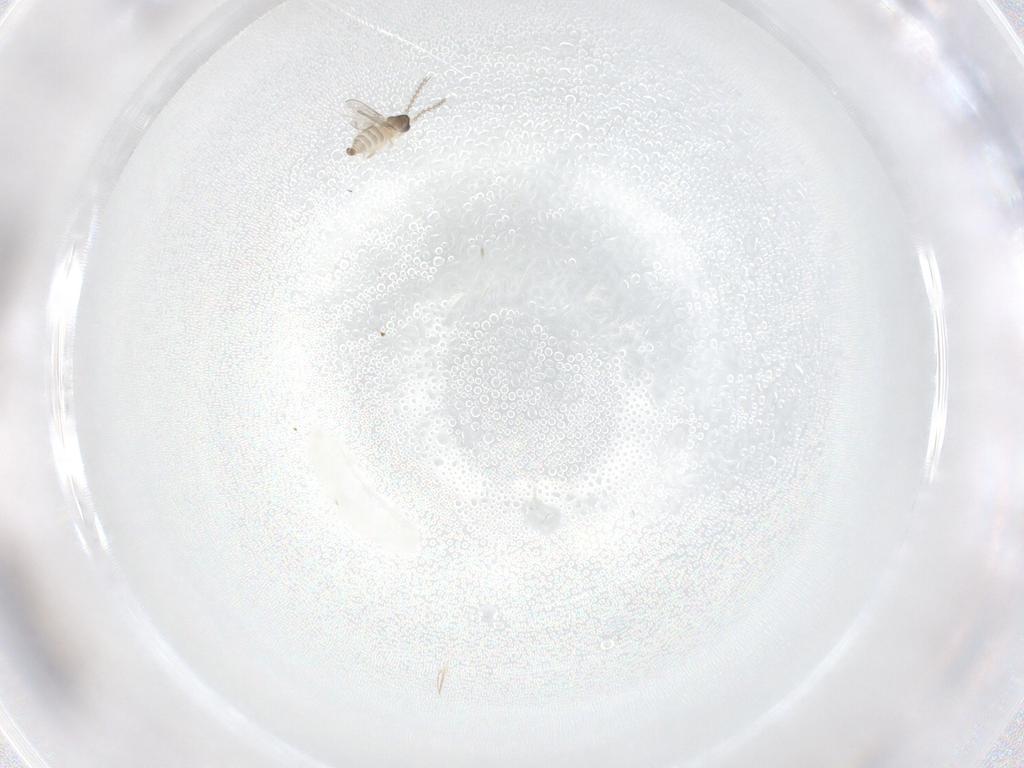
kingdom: Animalia
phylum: Arthropoda
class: Insecta
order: Diptera
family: Cecidomyiidae
